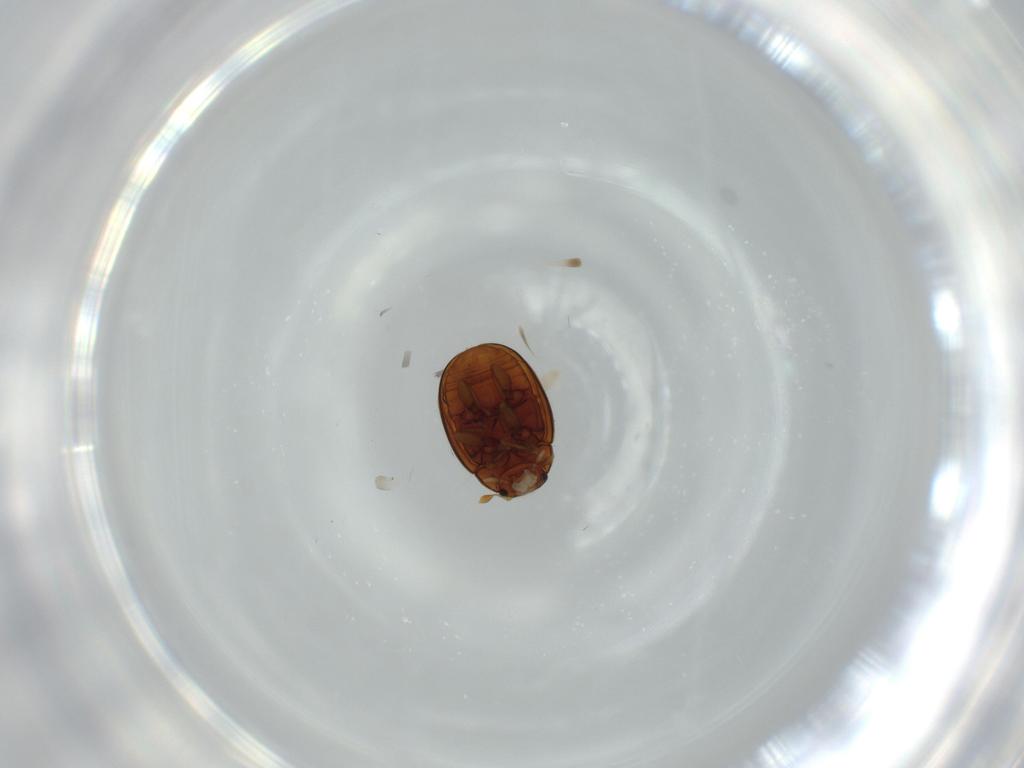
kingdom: Animalia
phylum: Arthropoda
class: Insecta
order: Coleoptera
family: Coccinellidae
